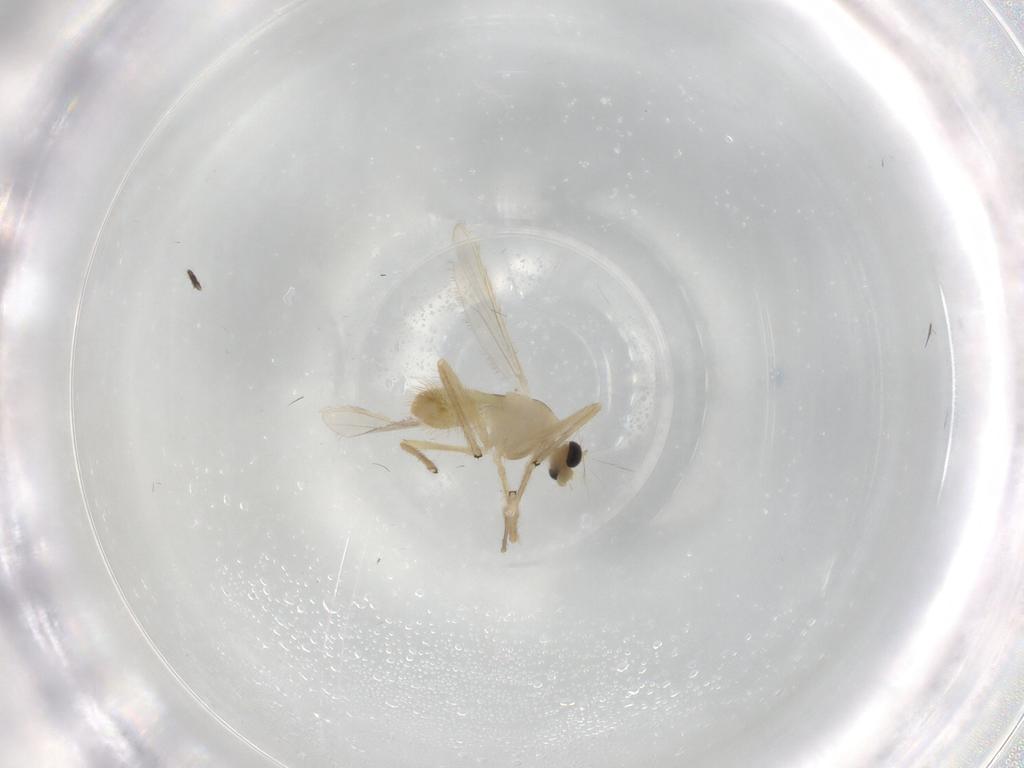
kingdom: Animalia
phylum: Arthropoda
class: Insecta
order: Diptera
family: Chironomidae
